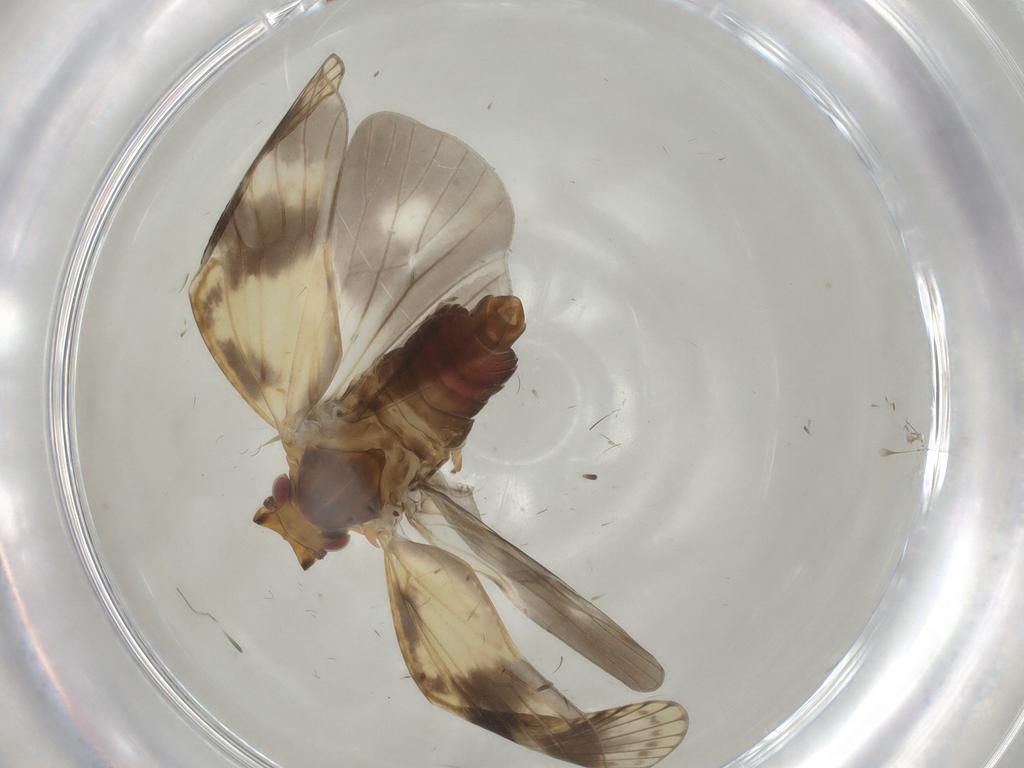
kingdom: Animalia
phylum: Arthropoda
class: Insecta
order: Hemiptera
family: Cixiidae
